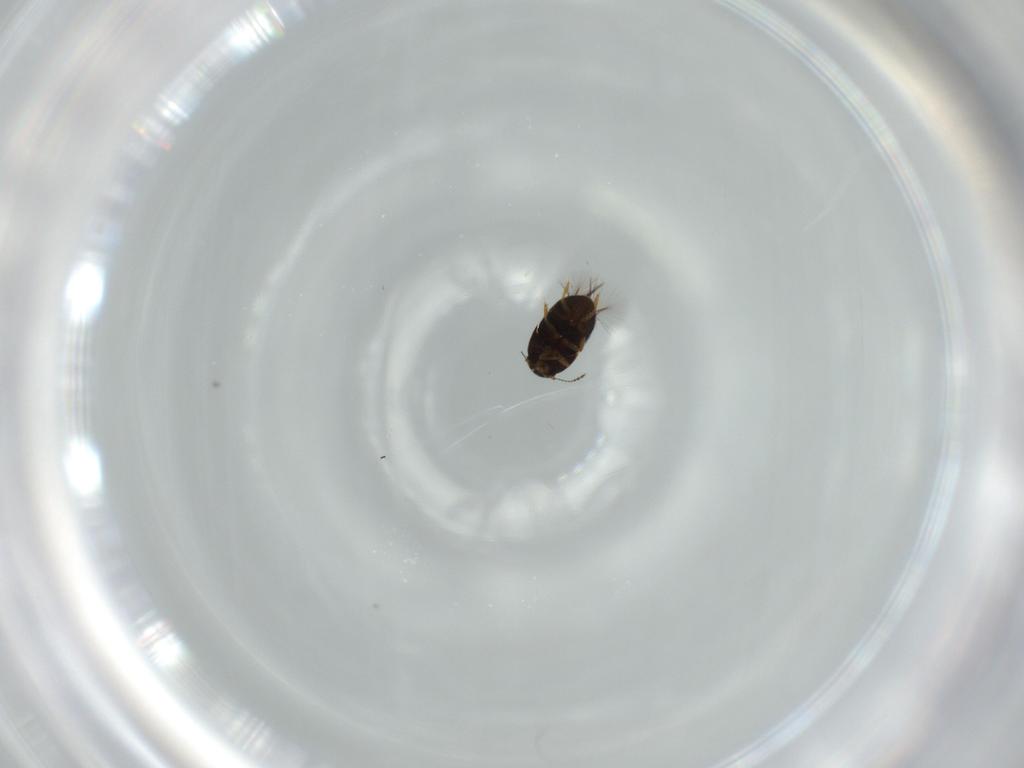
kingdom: Animalia
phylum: Arthropoda
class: Insecta
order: Coleoptera
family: Ptiliidae
